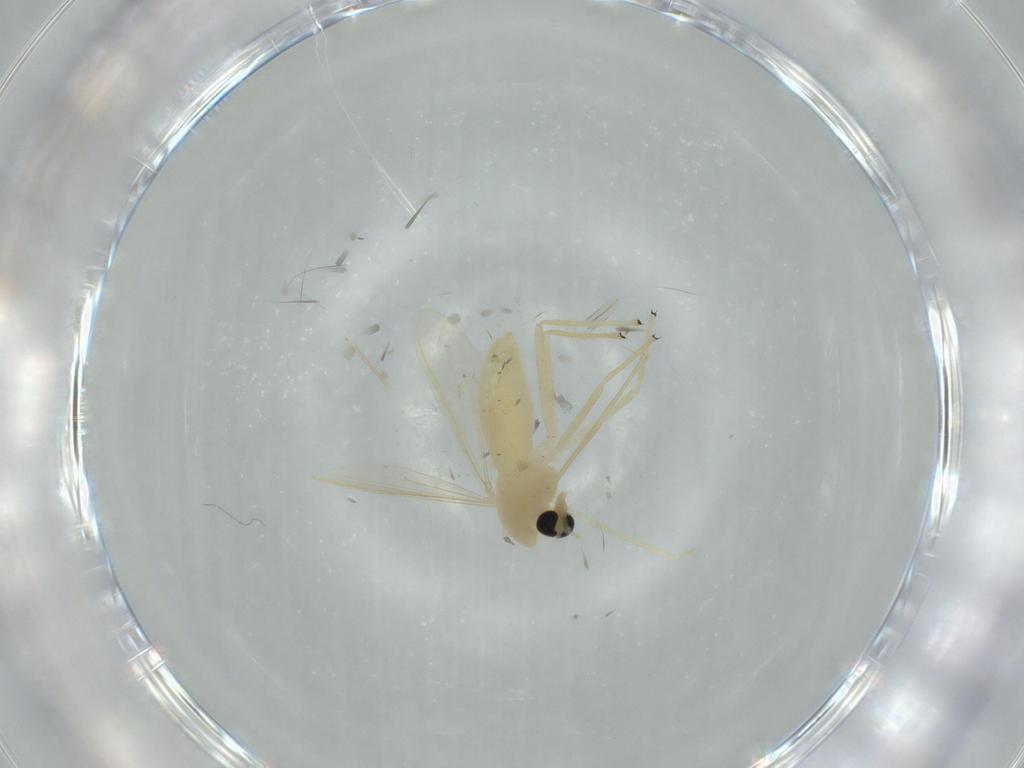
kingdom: Animalia
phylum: Arthropoda
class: Insecta
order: Diptera
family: Chironomidae
